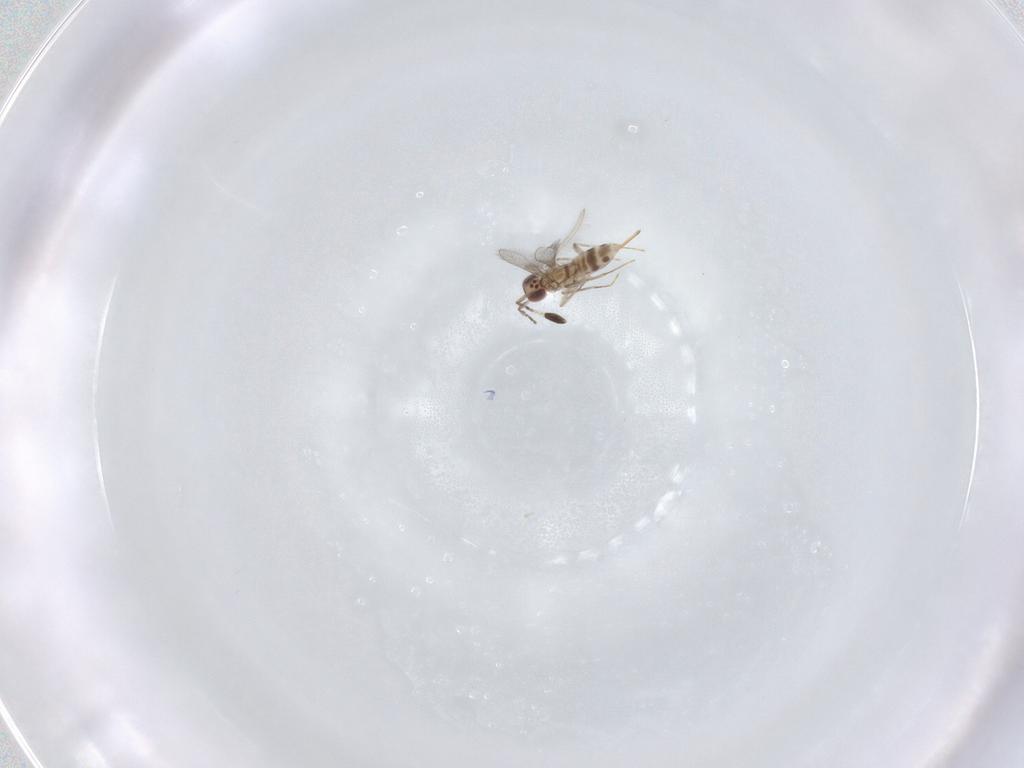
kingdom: Animalia
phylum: Arthropoda
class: Insecta
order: Hymenoptera
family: Mymaridae
